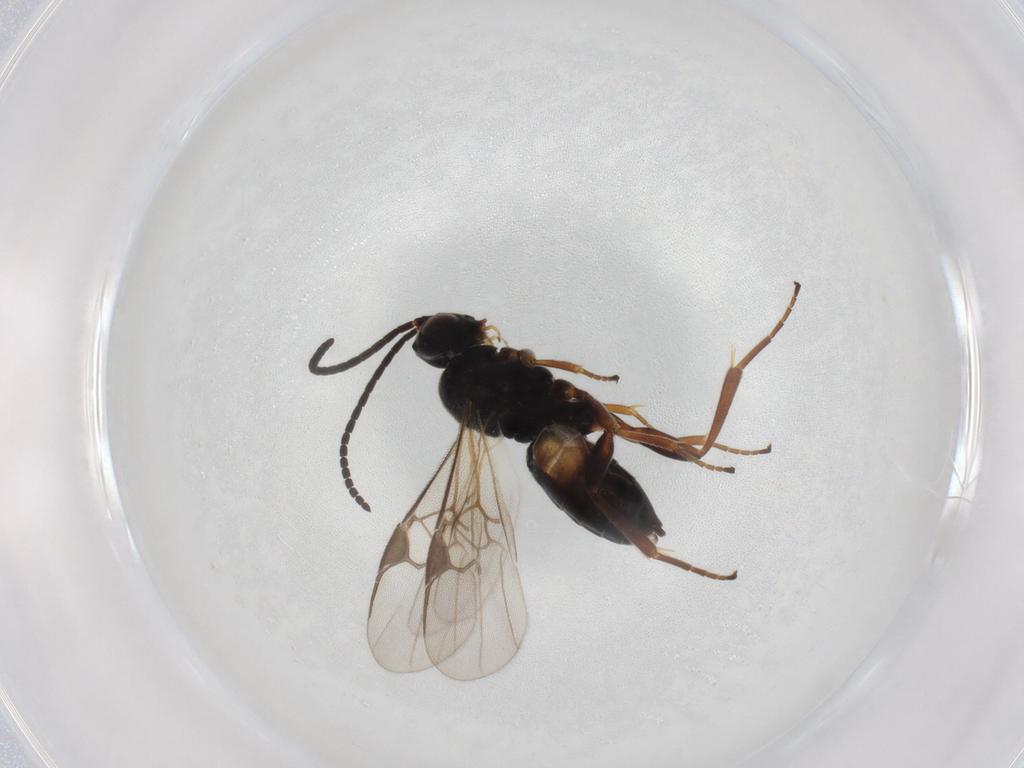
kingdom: Animalia
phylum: Arthropoda
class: Insecta
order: Hymenoptera
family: Braconidae
